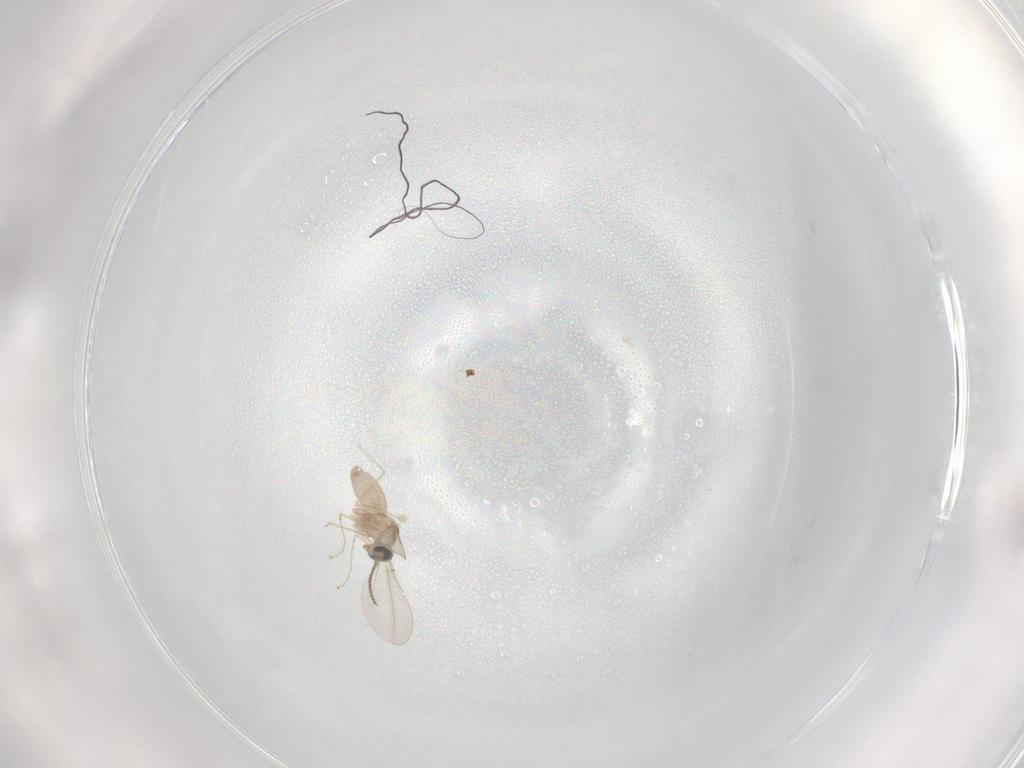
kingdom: Animalia
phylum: Arthropoda
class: Insecta
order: Diptera
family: Cecidomyiidae
